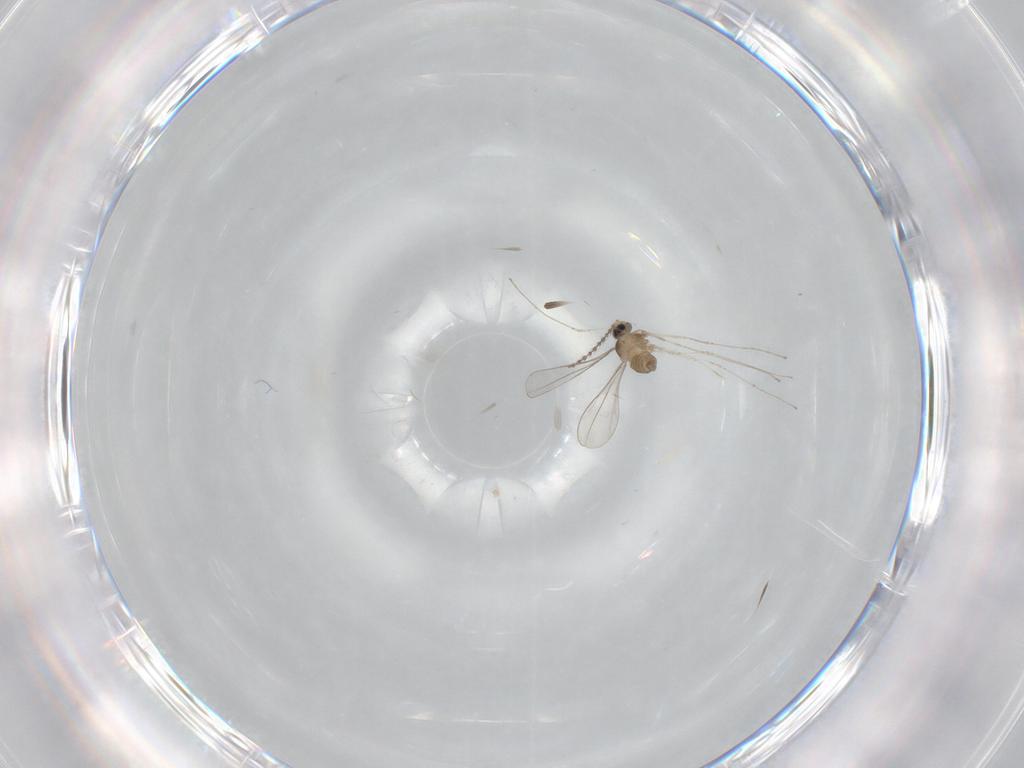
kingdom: Animalia
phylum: Arthropoda
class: Insecta
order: Diptera
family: Cecidomyiidae
